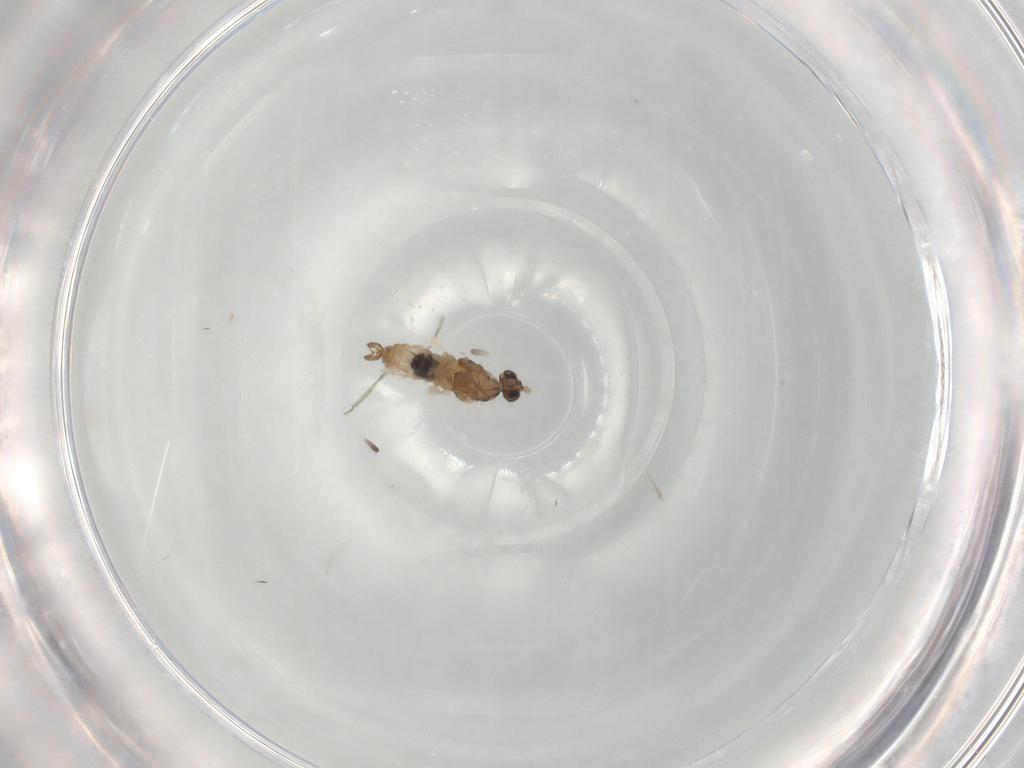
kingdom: Animalia
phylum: Arthropoda
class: Insecta
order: Diptera
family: Cecidomyiidae
